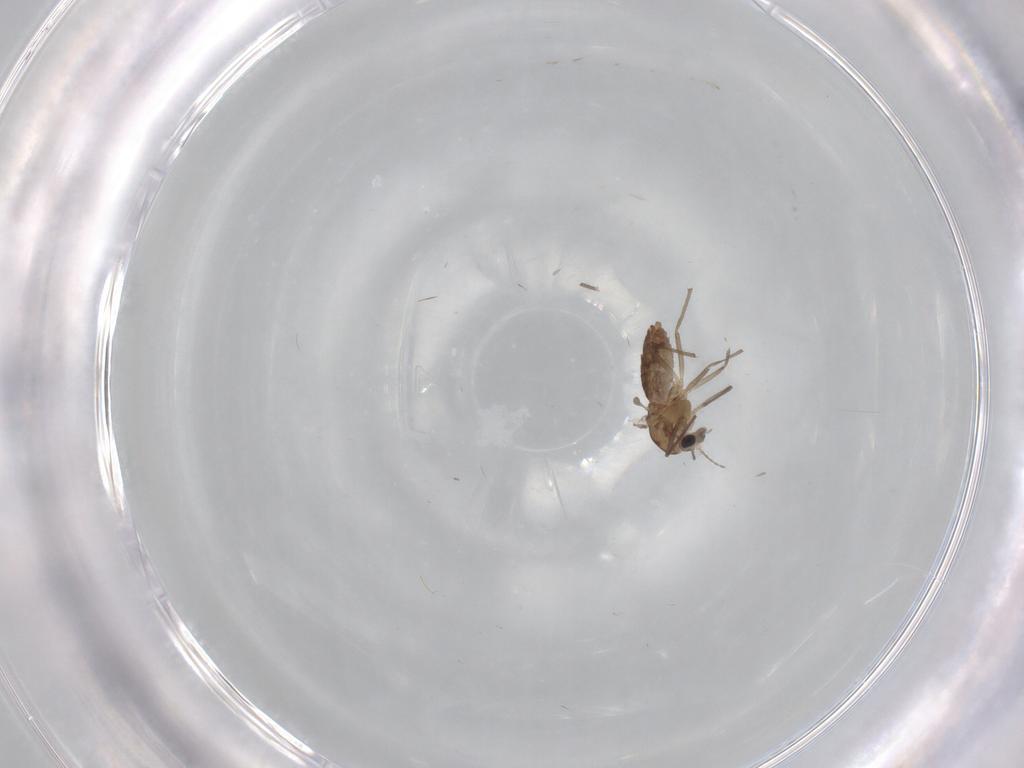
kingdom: Animalia
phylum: Arthropoda
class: Insecta
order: Diptera
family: Chironomidae
